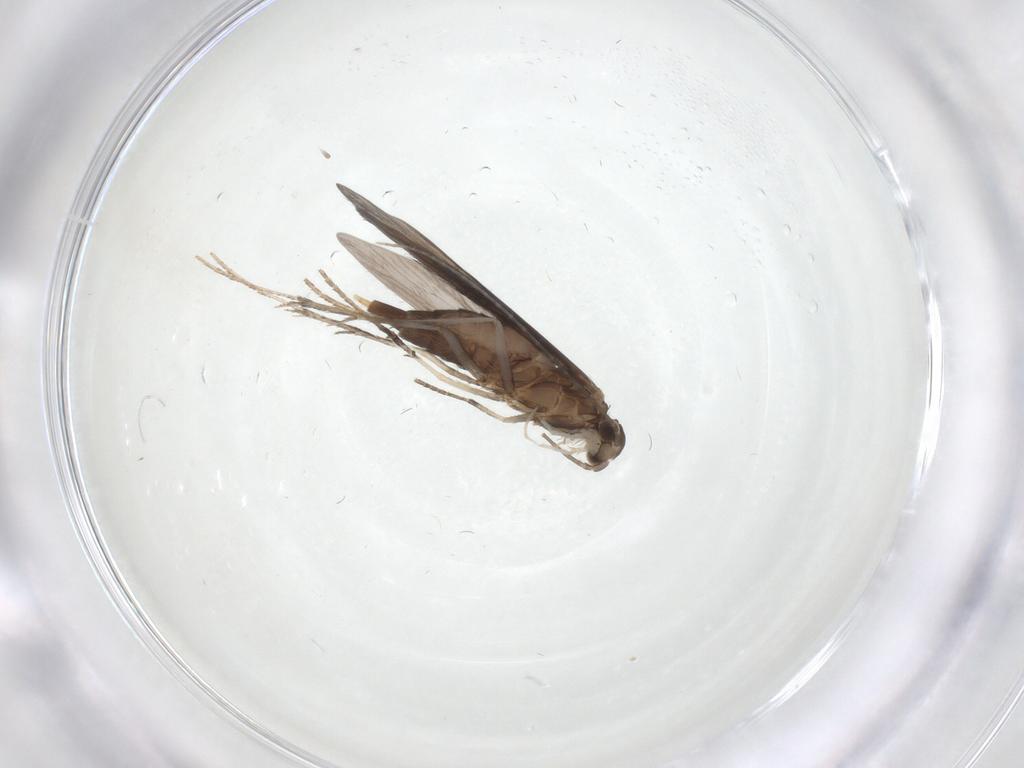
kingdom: Animalia
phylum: Arthropoda
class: Insecta
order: Trichoptera
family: Xiphocentronidae
